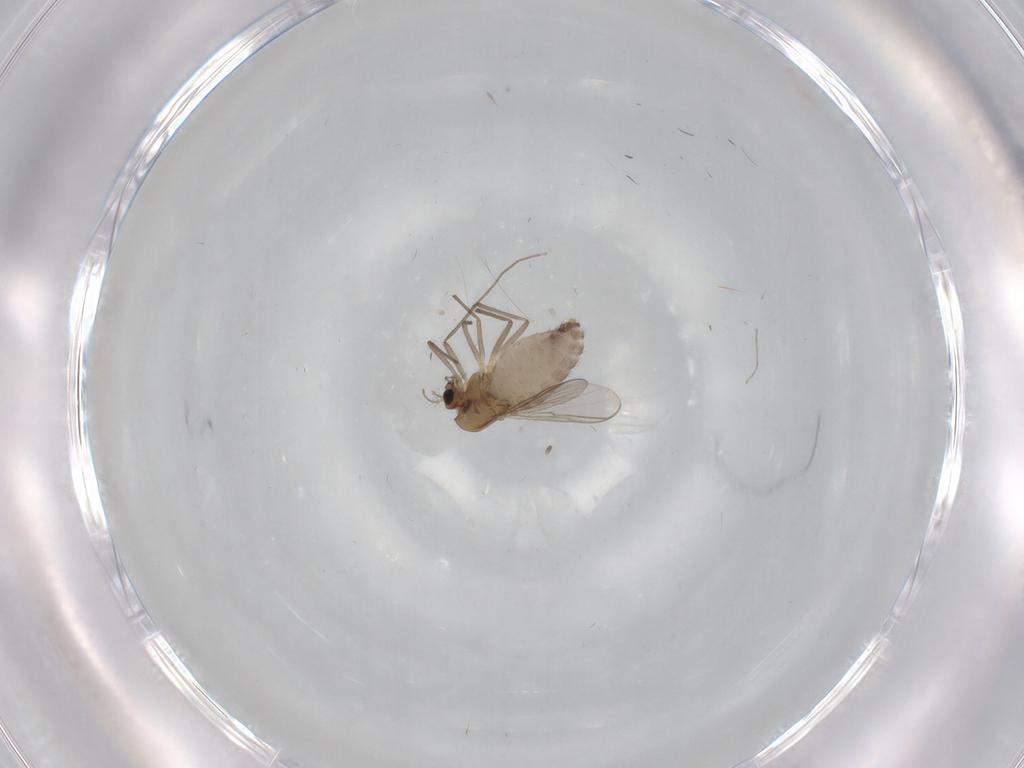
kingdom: Animalia
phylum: Arthropoda
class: Insecta
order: Diptera
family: Chironomidae
